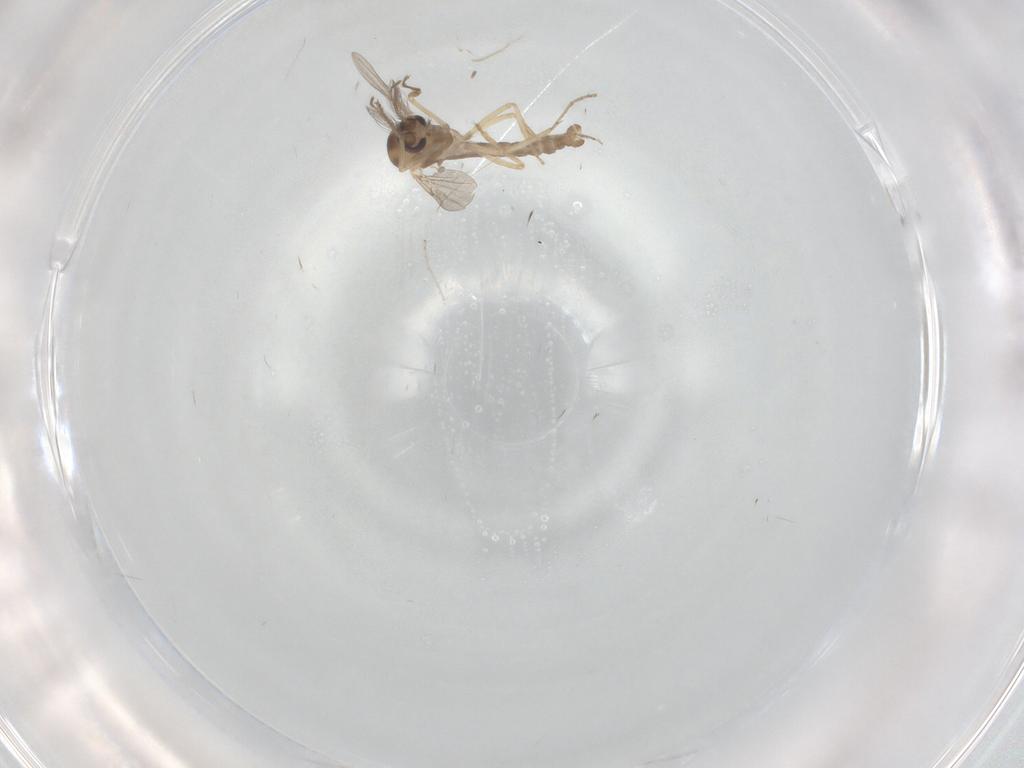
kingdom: Animalia
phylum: Arthropoda
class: Insecta
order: Diptera
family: Ceratopogonidae
